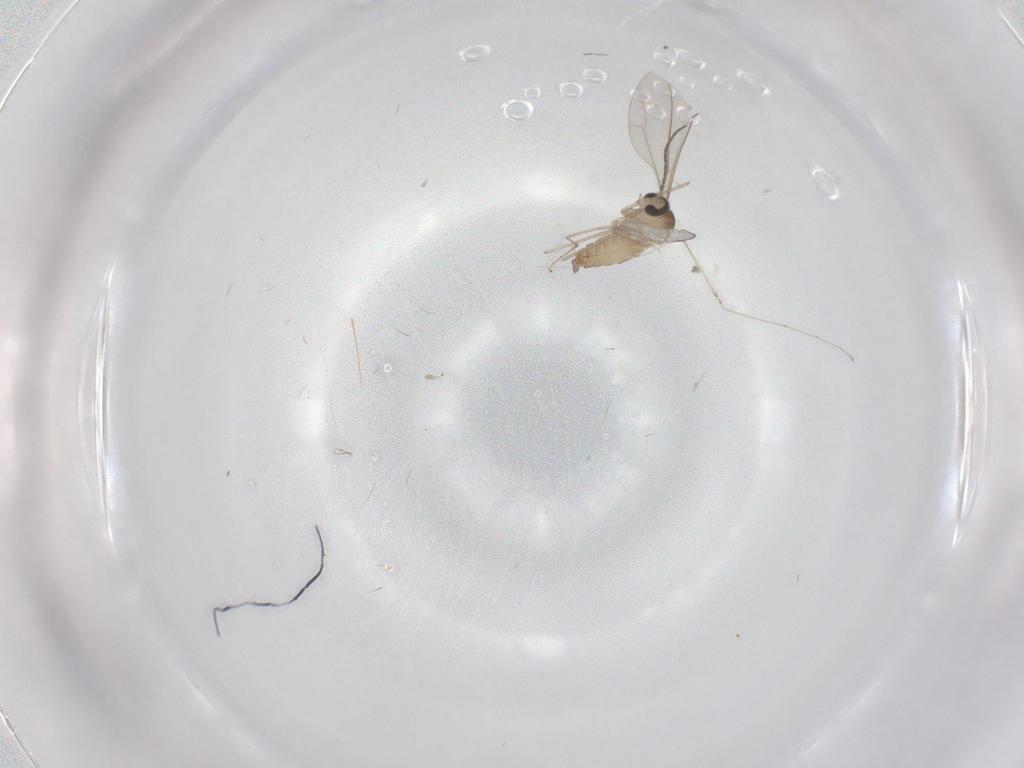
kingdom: Animalia
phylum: Arthropoda
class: Insecta
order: Diptera
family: Cecidomyiidae
